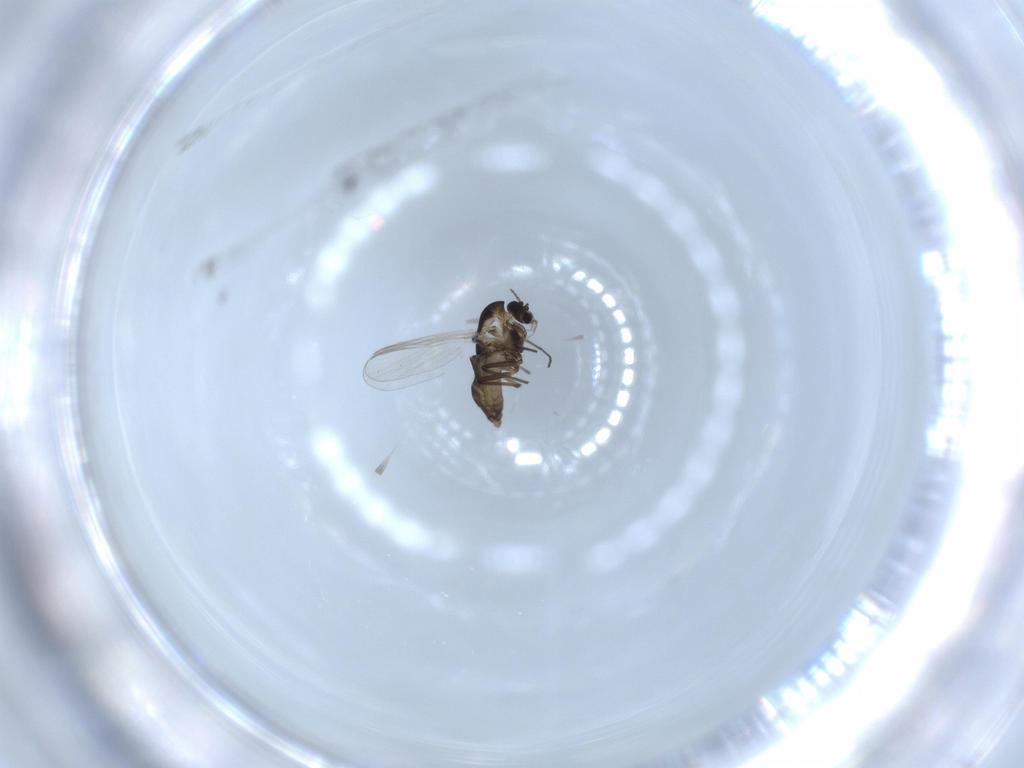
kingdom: Animalia
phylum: Arthropoda
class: Insecta
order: Diptera
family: Chironomidae
